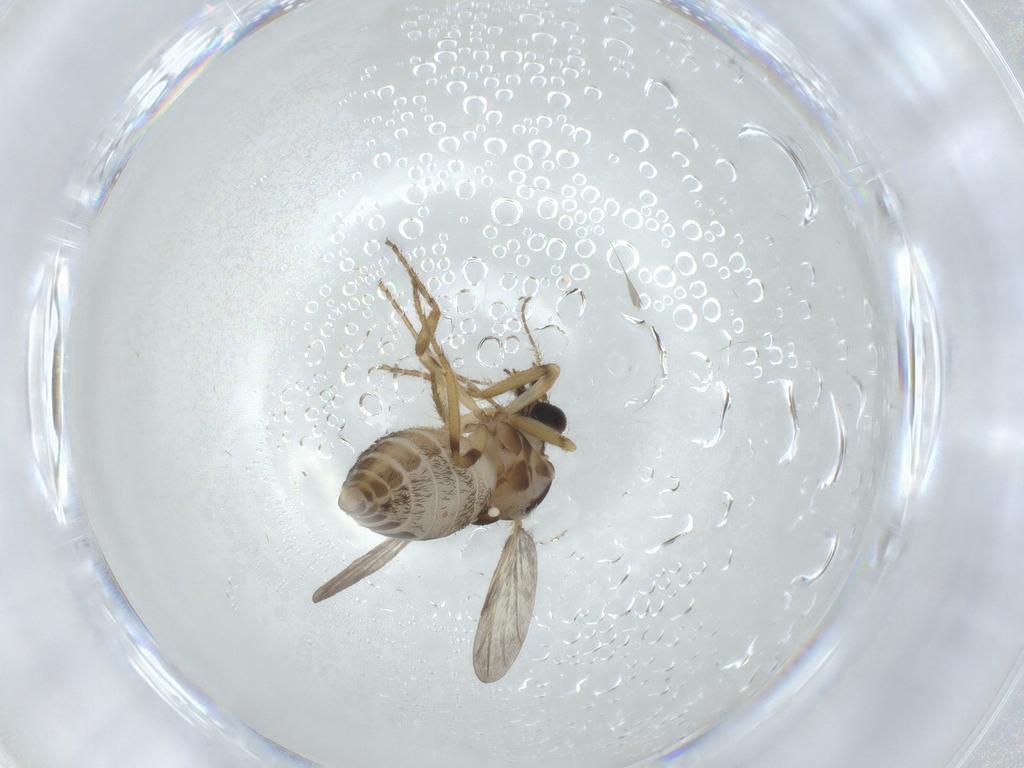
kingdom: Animalia
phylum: Arthropoda
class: Insecta
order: Diptera
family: Ceratopogonidae
